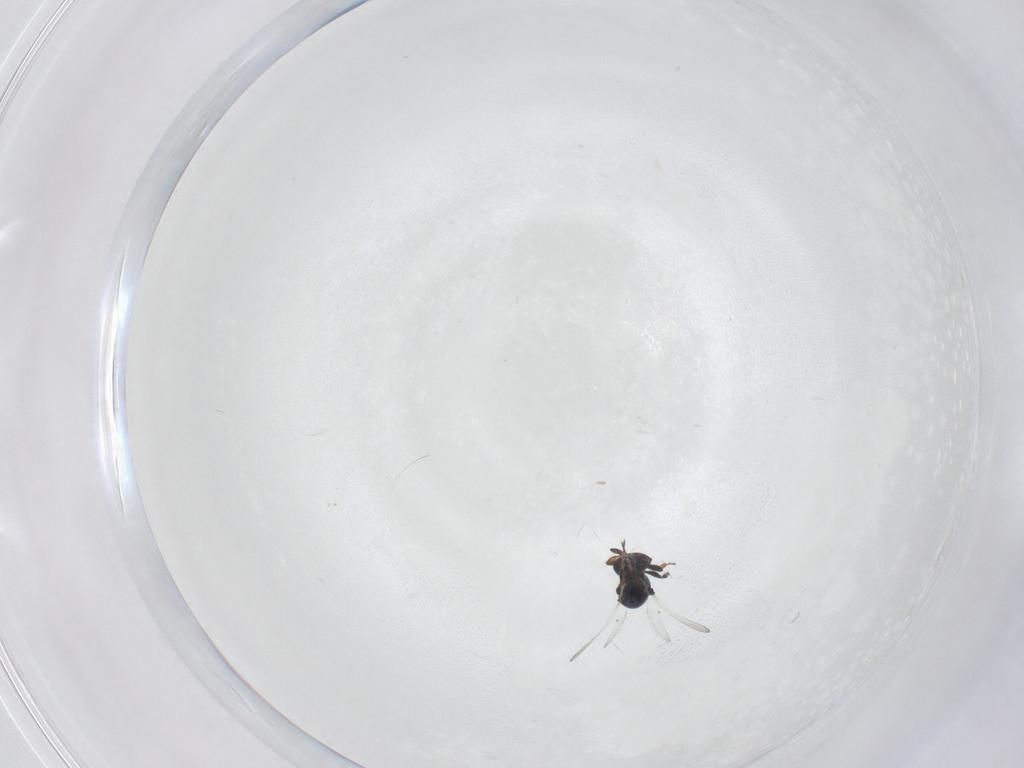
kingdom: Animalia
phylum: Arthropoda
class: Insecta
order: Hymenoptera
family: Platygastridae
